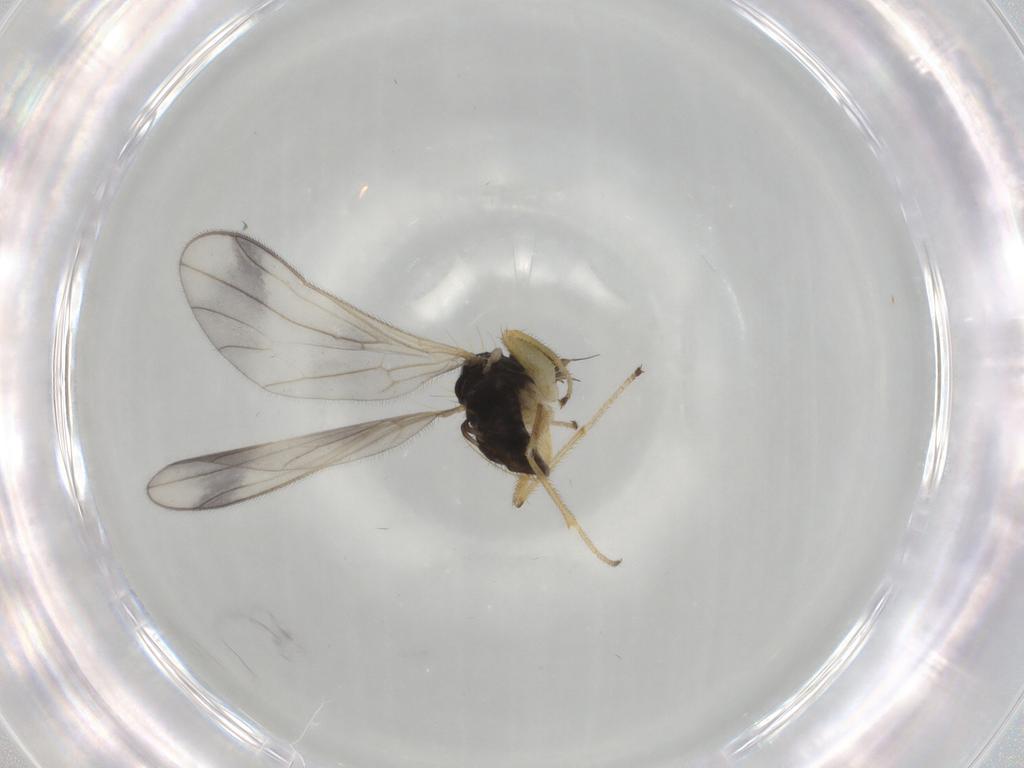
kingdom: Animalia
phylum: Arthropoda
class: Insecta
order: Diptera
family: Empididae
